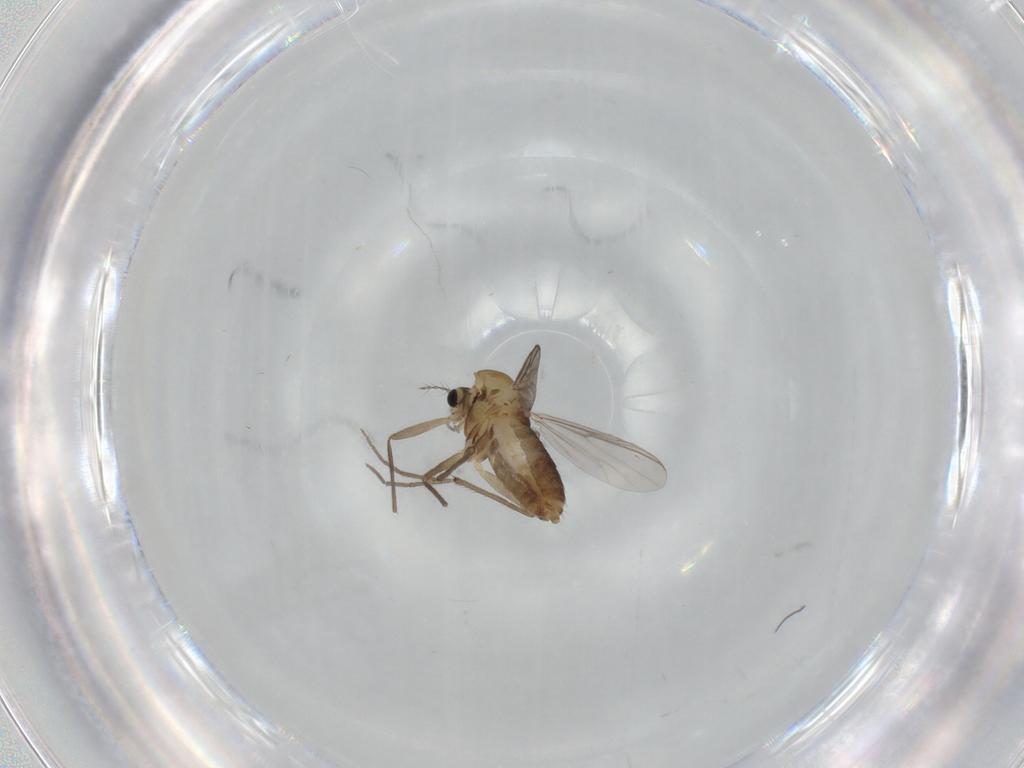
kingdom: Animalia
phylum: Arthropoda
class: Insecta
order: Diptera
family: Chironomidae
